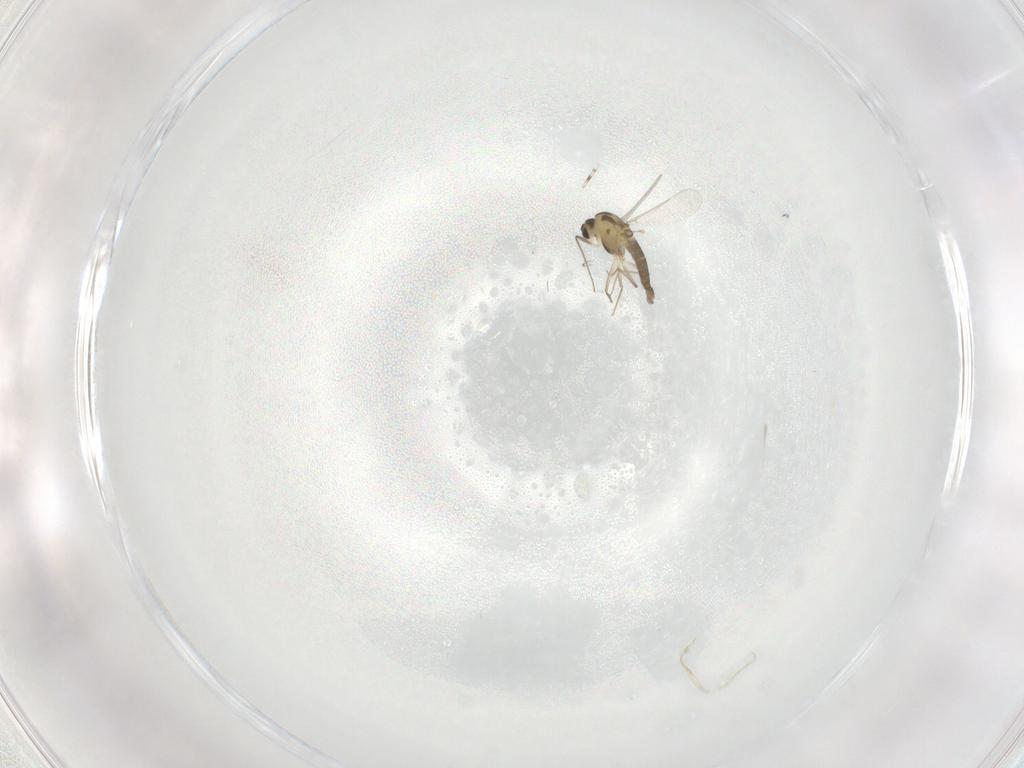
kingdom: Animalia
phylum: Arthropoda
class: Insecta
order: Diptera
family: Chironomidae
